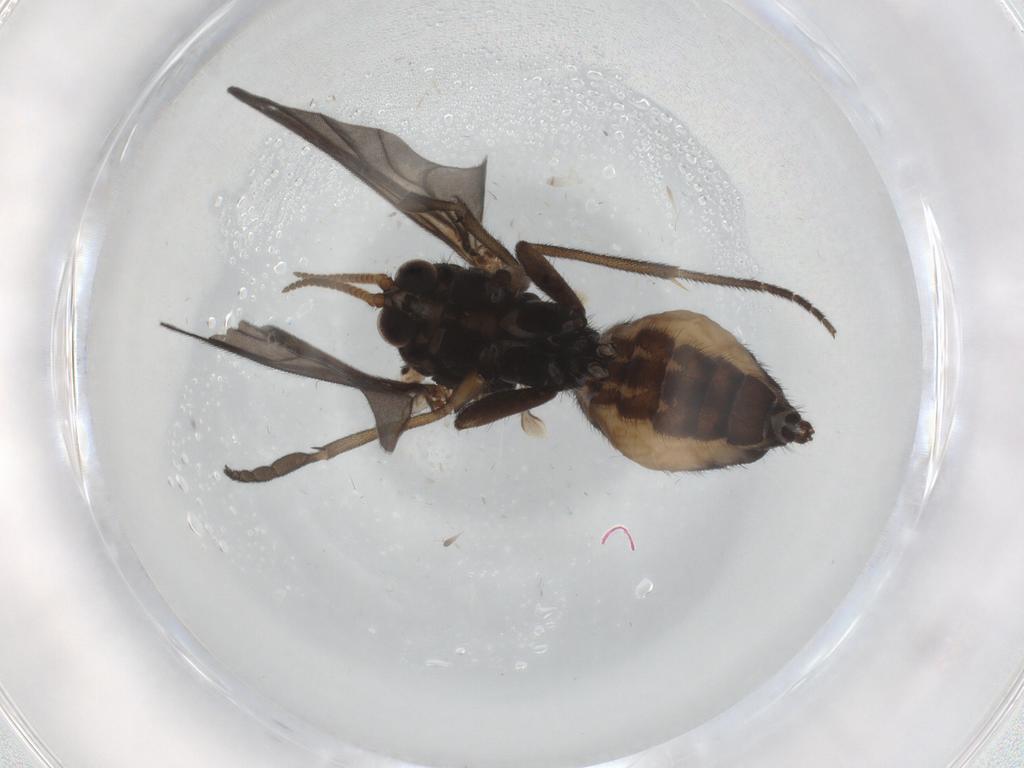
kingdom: Animalia
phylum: Arthropoda
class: Insecta
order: Diptera
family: Mycetophilidae
